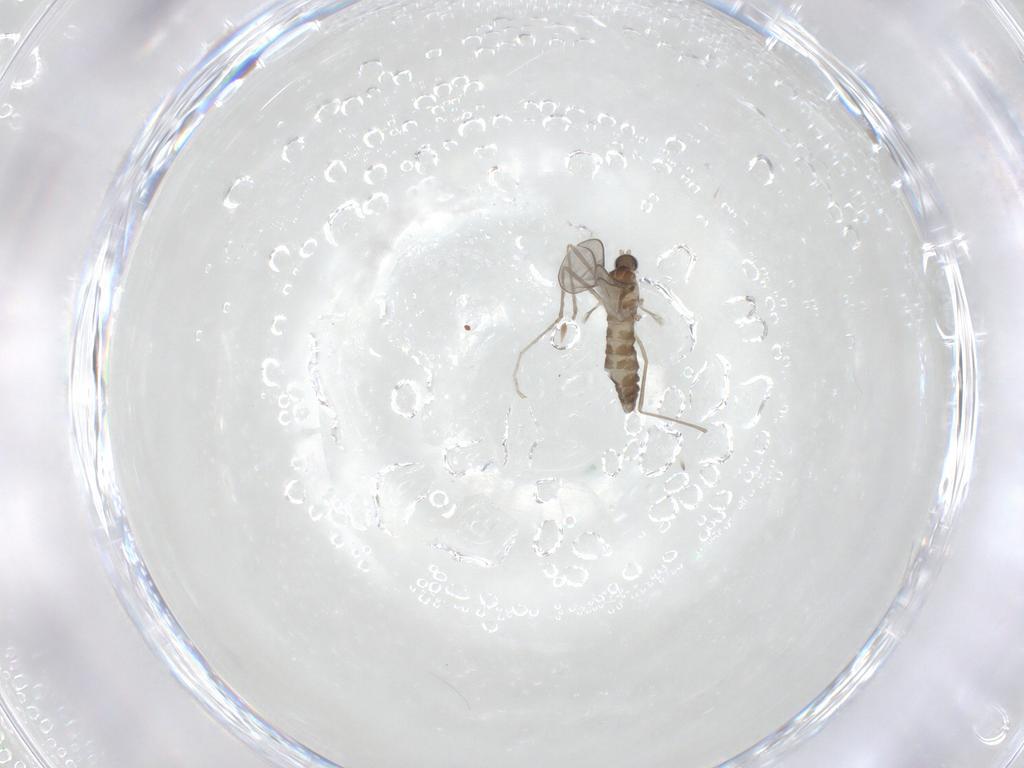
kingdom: Animalia
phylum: Arthropoda
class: Insecta
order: Diptera
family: Cecidomyiidae
